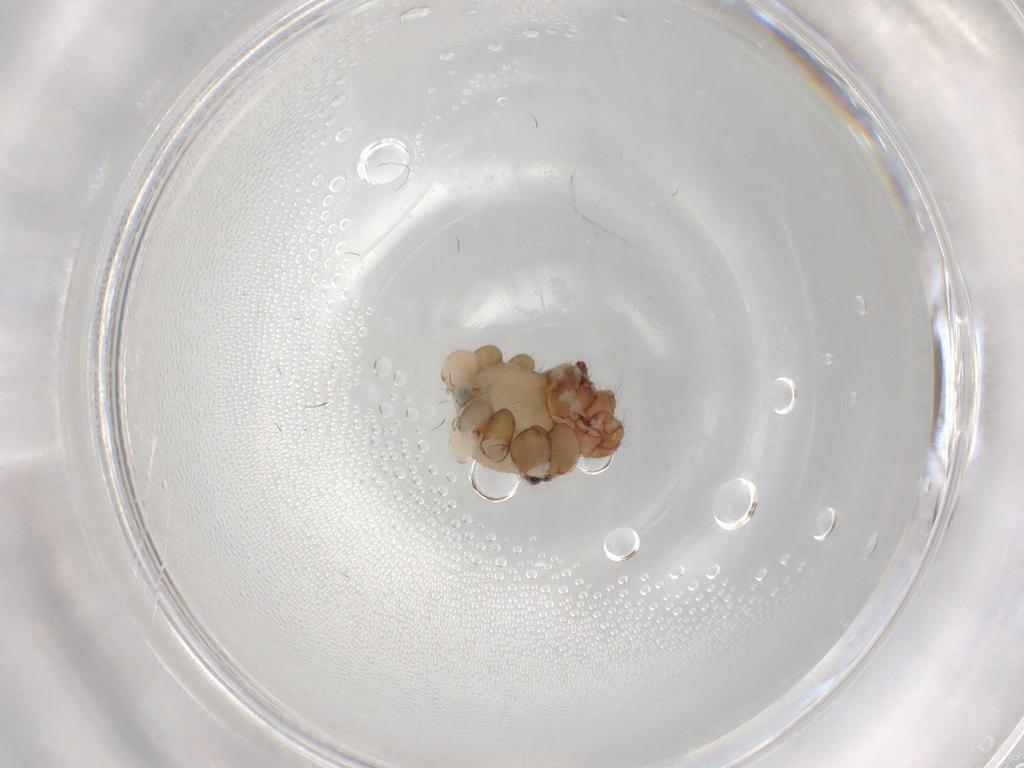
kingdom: Animalia
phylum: Arthropoda
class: Arachnida
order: Araneae
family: Pholcidae
